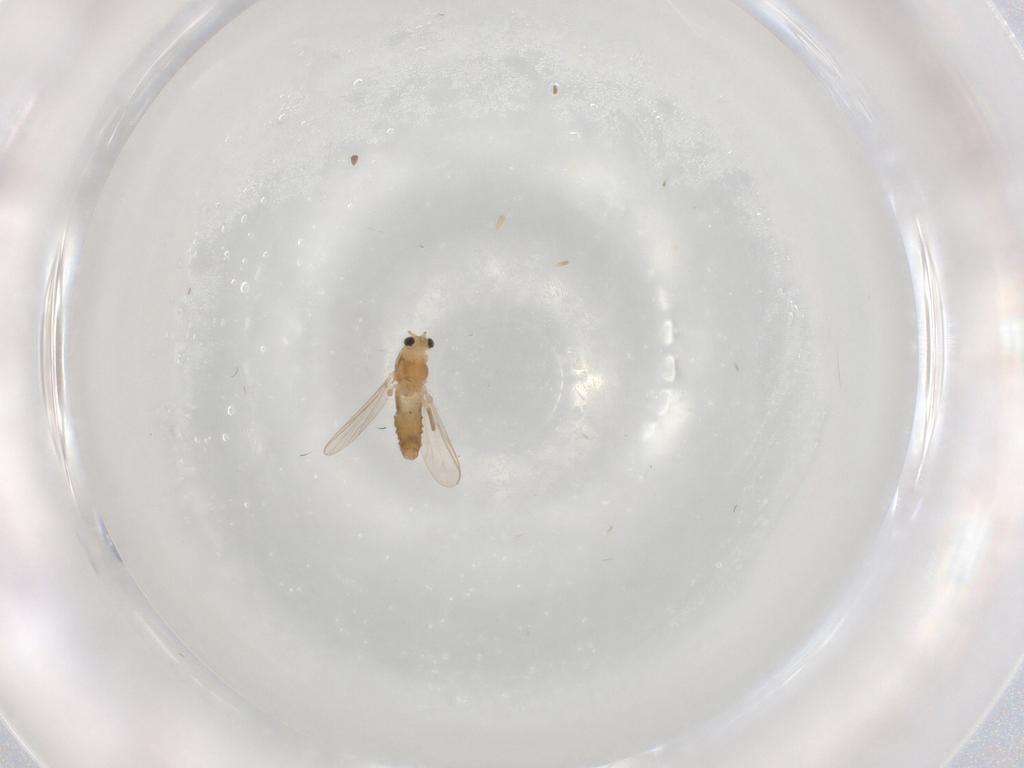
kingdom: Animalia
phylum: Arthropoda
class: Insecta
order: Diptera
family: Chironomidae
